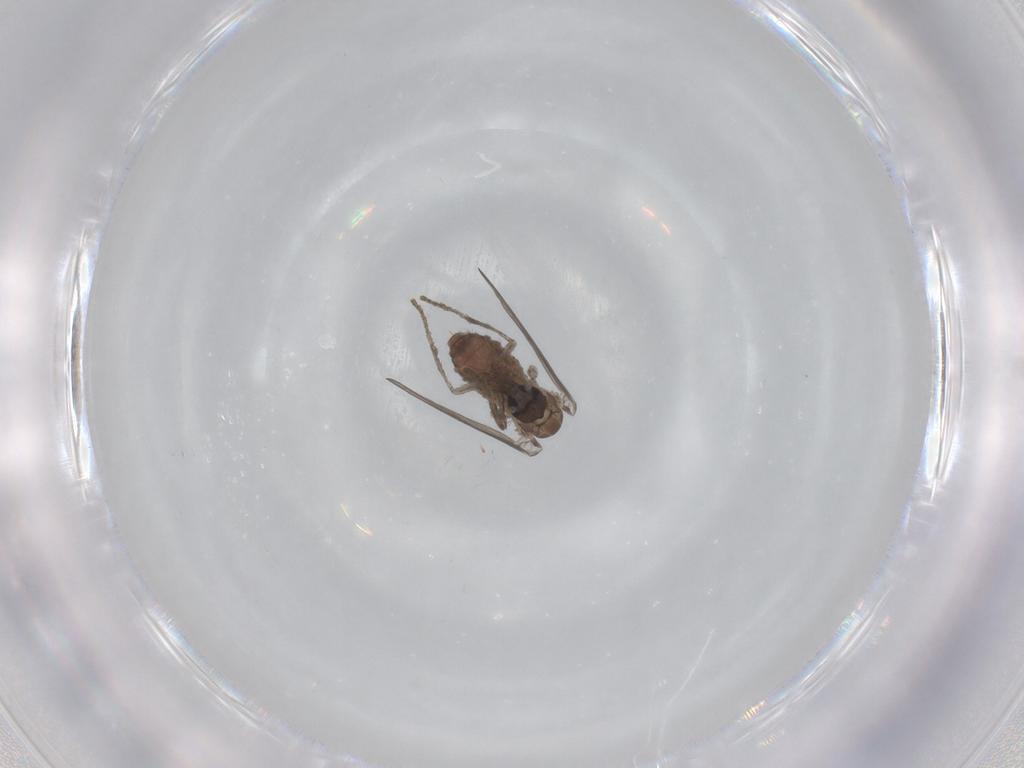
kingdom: Animalia
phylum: Arthropoda
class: Insecta
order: Diptera
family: Psychodidae
